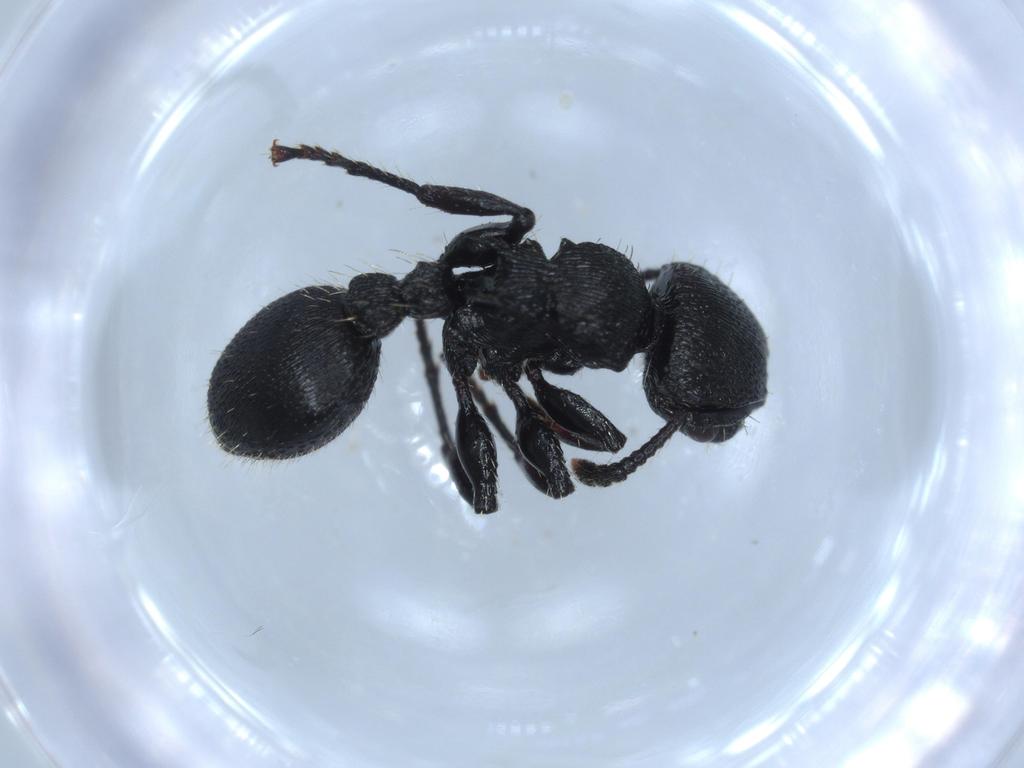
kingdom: Animalia
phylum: Arthropoda
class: Insecta
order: Hymenoptera
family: Formicidae
